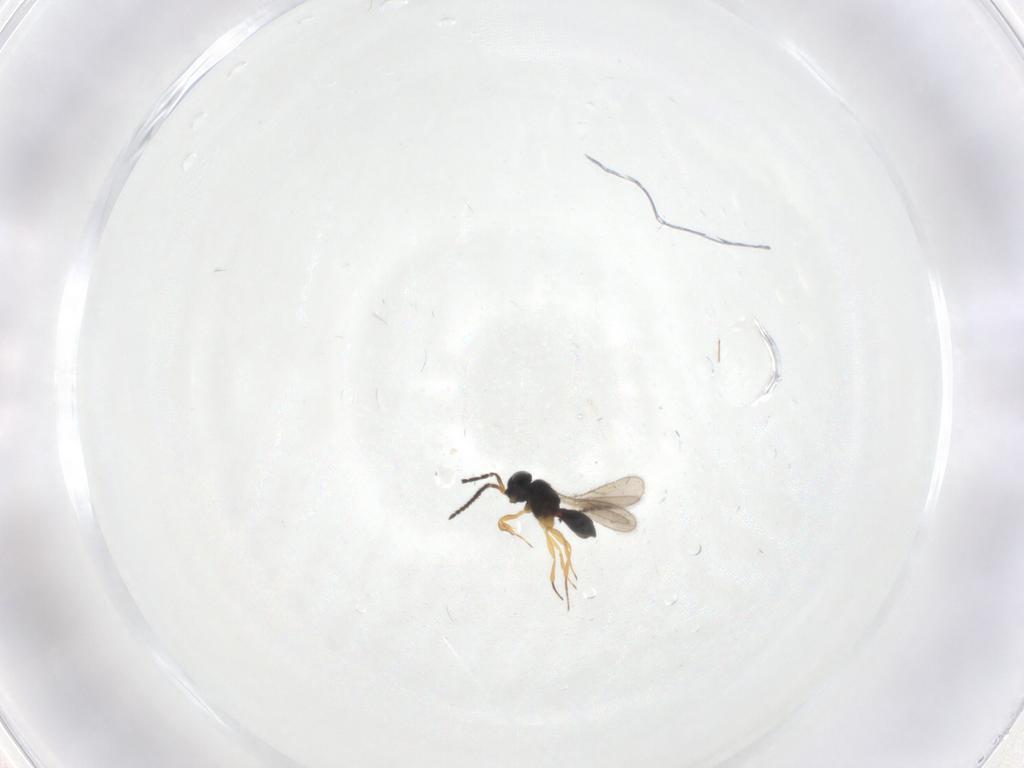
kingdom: Animalia
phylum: Arthropoda
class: Insecta
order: Hymenoptera
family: Scelionidae
